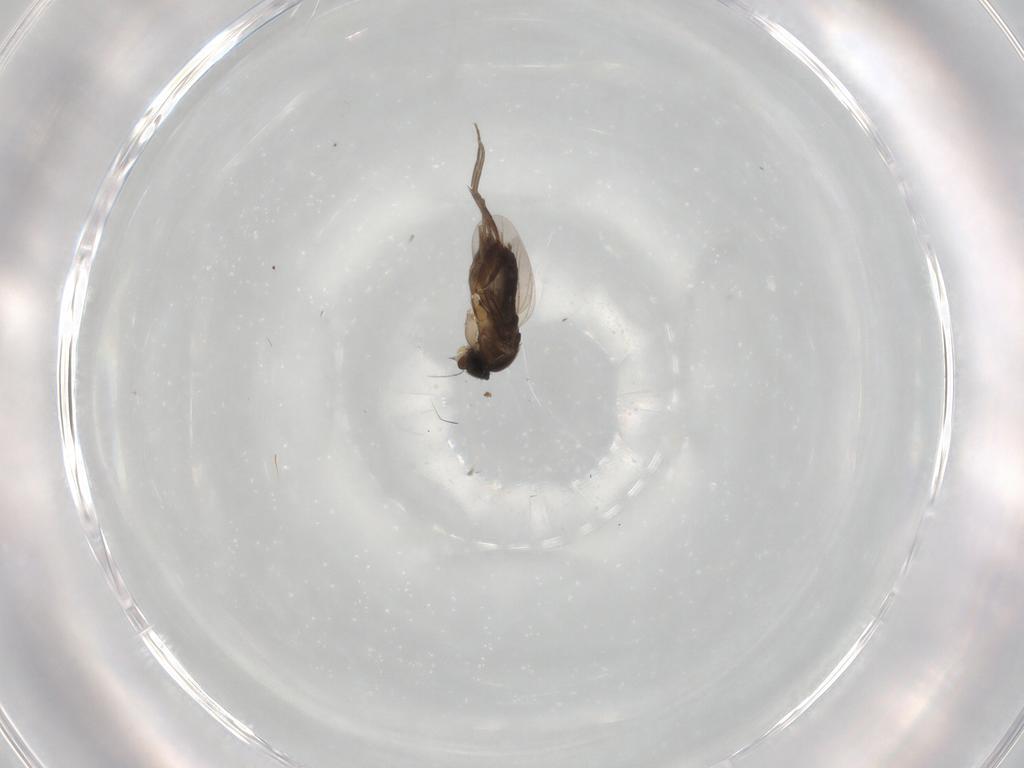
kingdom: Animalia
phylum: Arthropoda
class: Insecta
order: Diptera
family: Phoridae
